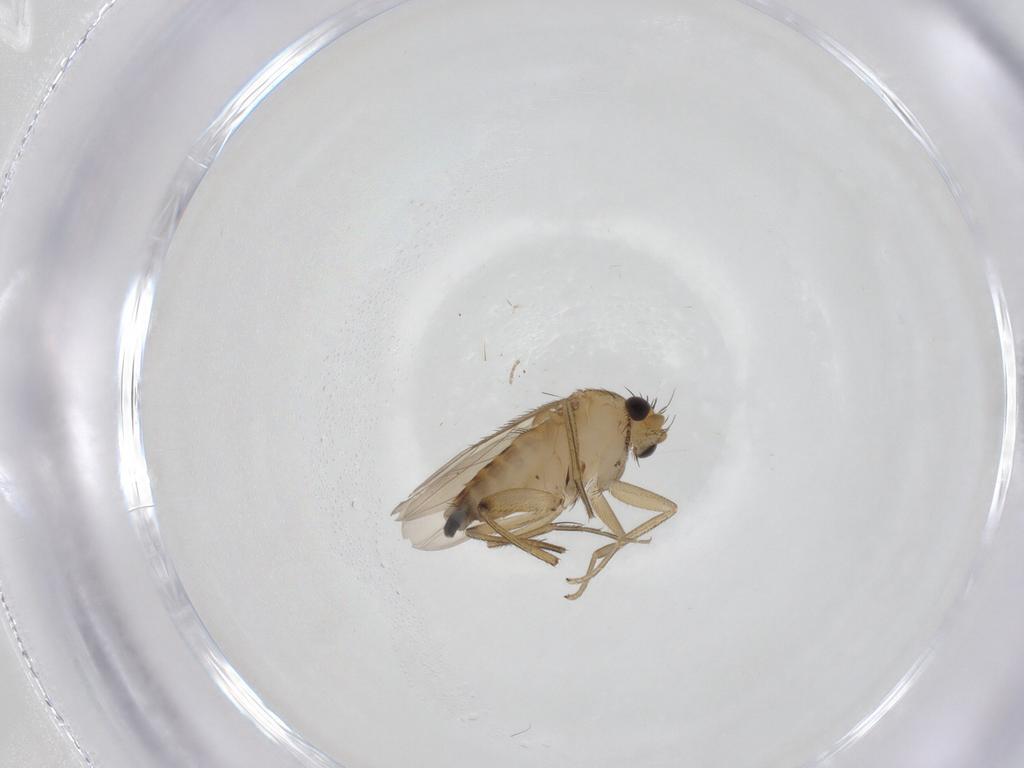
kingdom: Animalia
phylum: Arthropoda
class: Insecta
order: Diptera
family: Phoridae
